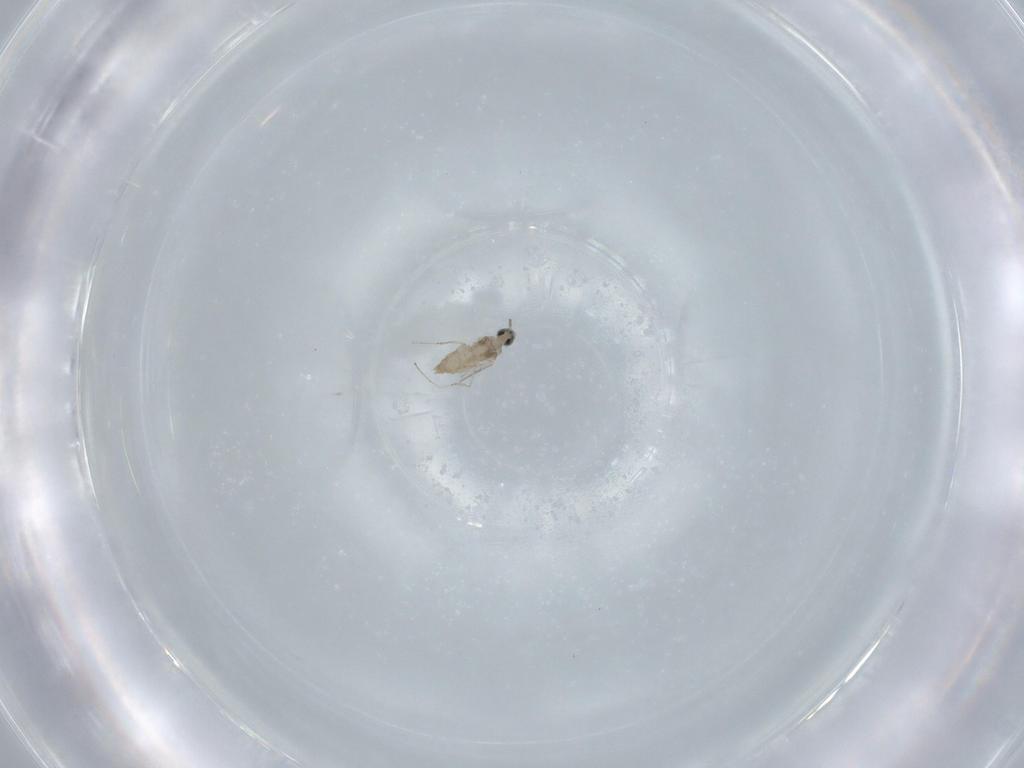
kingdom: Animalia
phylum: Arthropoda
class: Insecta
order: Diptera
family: Cecidomyiidae
